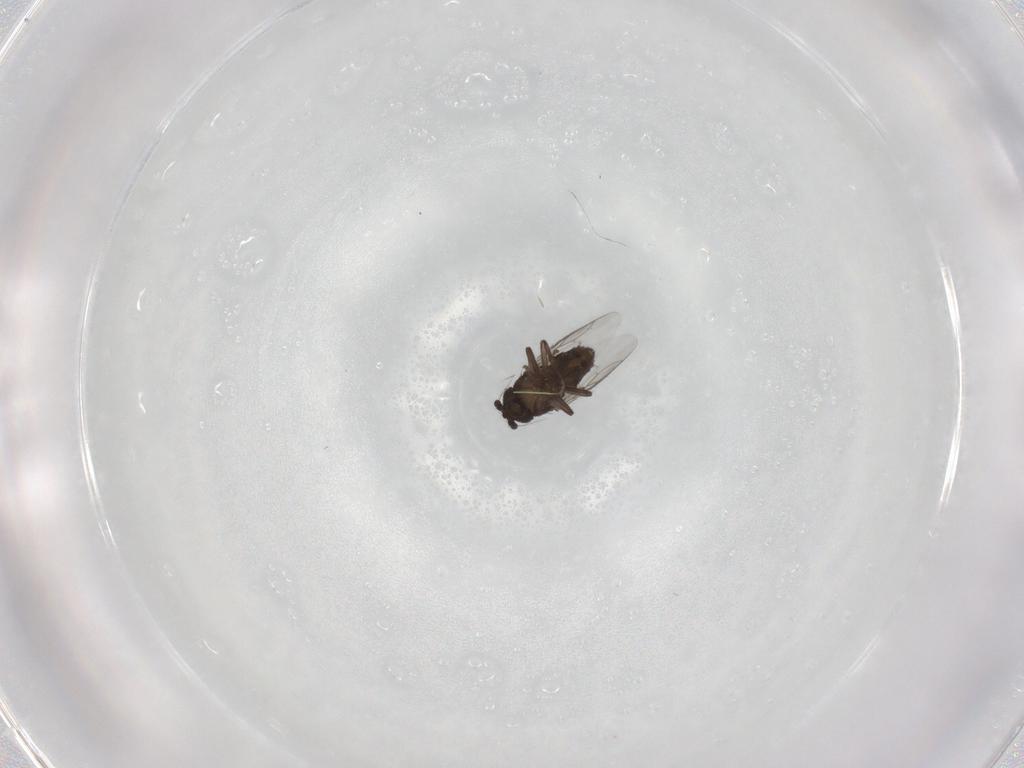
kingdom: Animalia
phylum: Arthropoda
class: Insecta
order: Diptera
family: Sphaeroceridae
